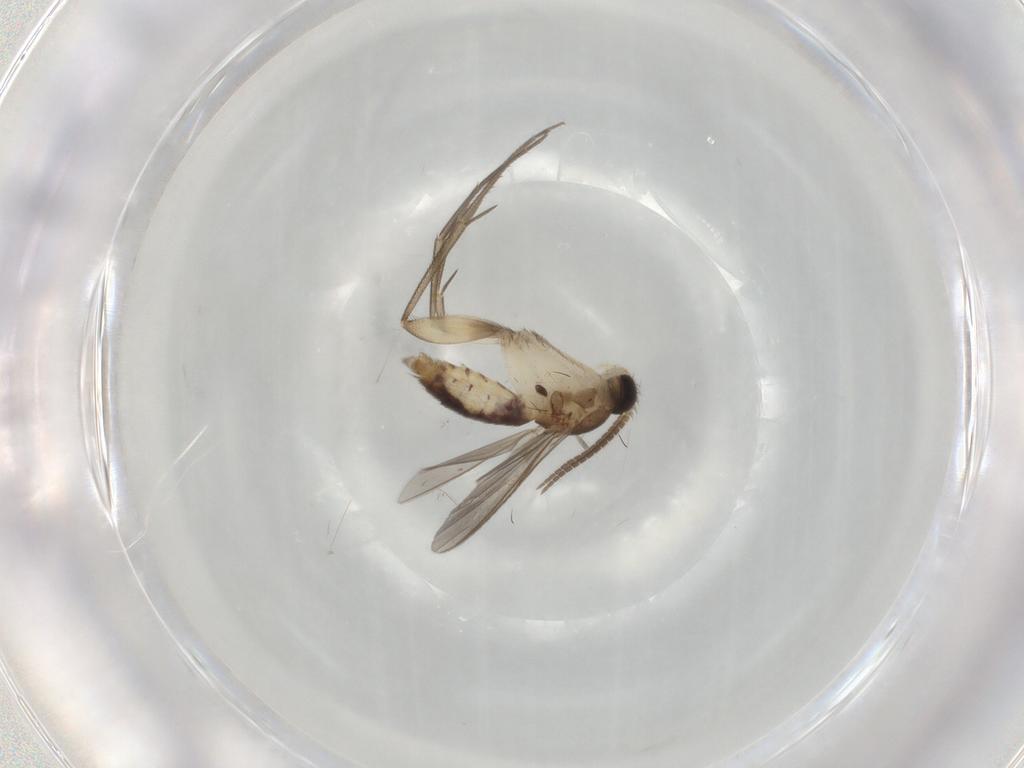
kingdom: Animalia
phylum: Arthropoda
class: Insecta
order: Diptera
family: Mycetophilidae
